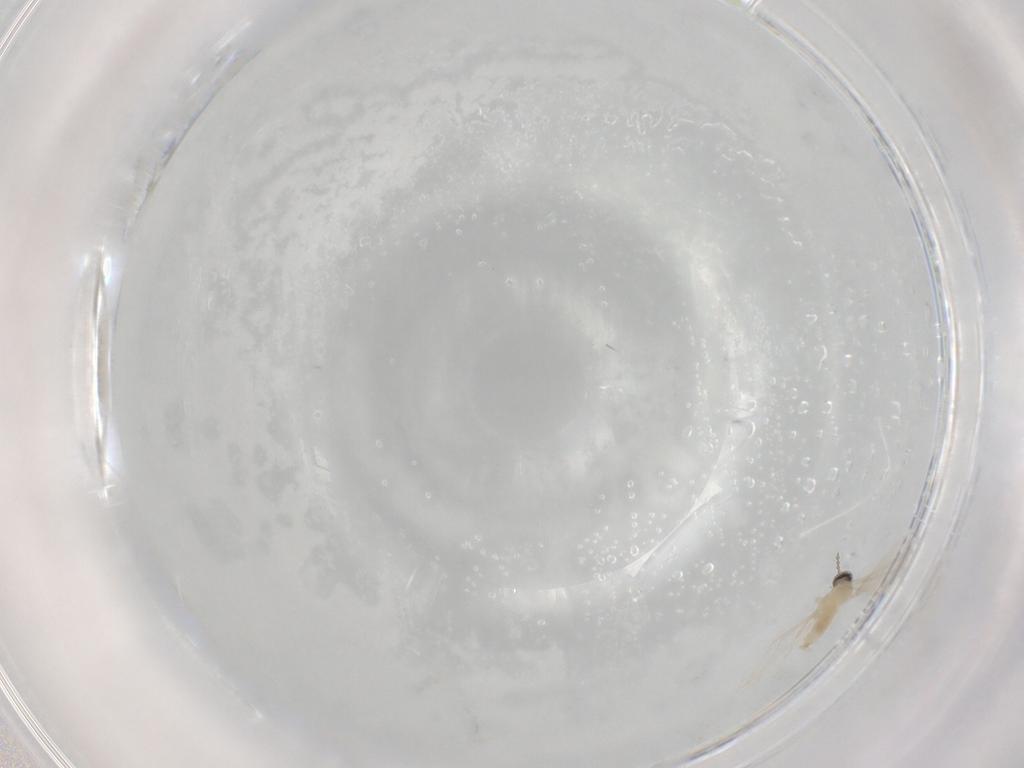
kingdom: Animalia
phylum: Arthropoda
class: Insecta
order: Diptera
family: Cecidomyiidae
